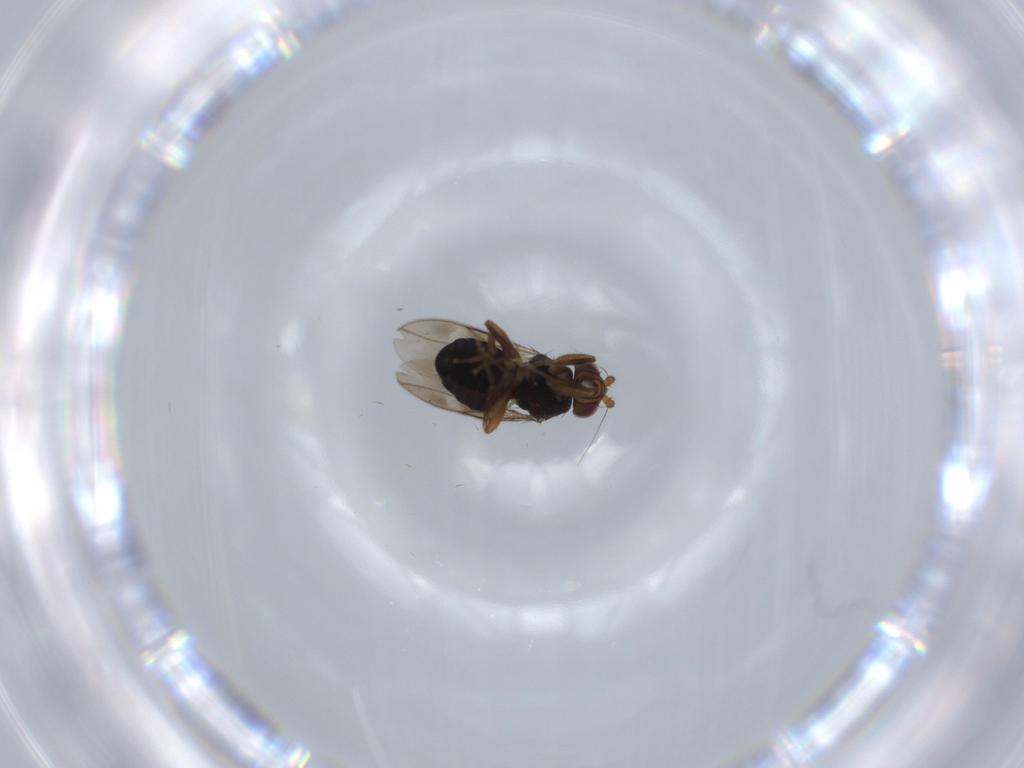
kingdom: Animalia
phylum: Arthropoda
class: Insecta
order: Diptera
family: Sphaeroceridae
